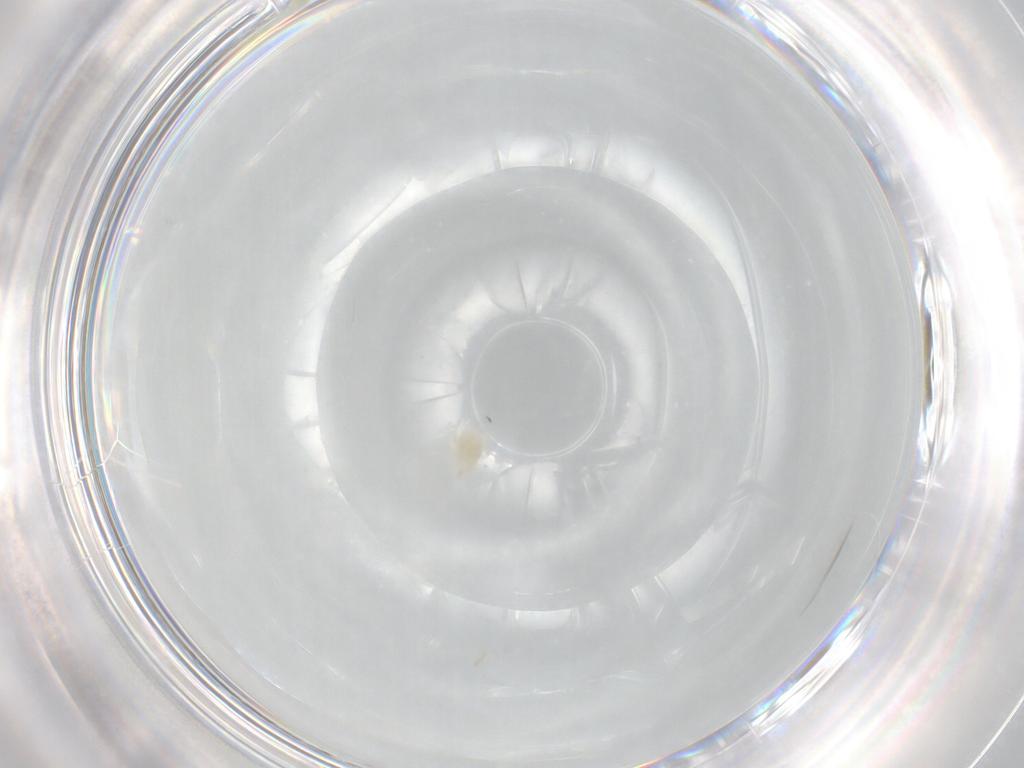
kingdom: Animalia
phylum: Arthropoda
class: Arachnida
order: Trombidiformes
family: Eupodidae
